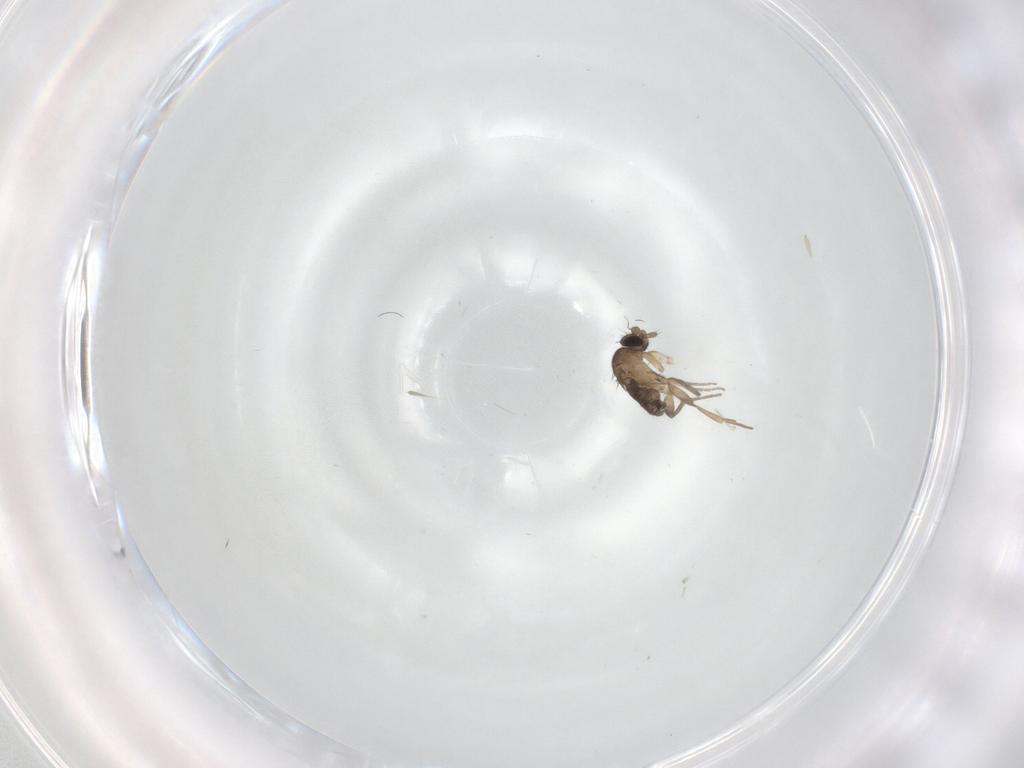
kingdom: Animalia
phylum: Arthropoda
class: Insecta
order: Diptera
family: Phoridae
